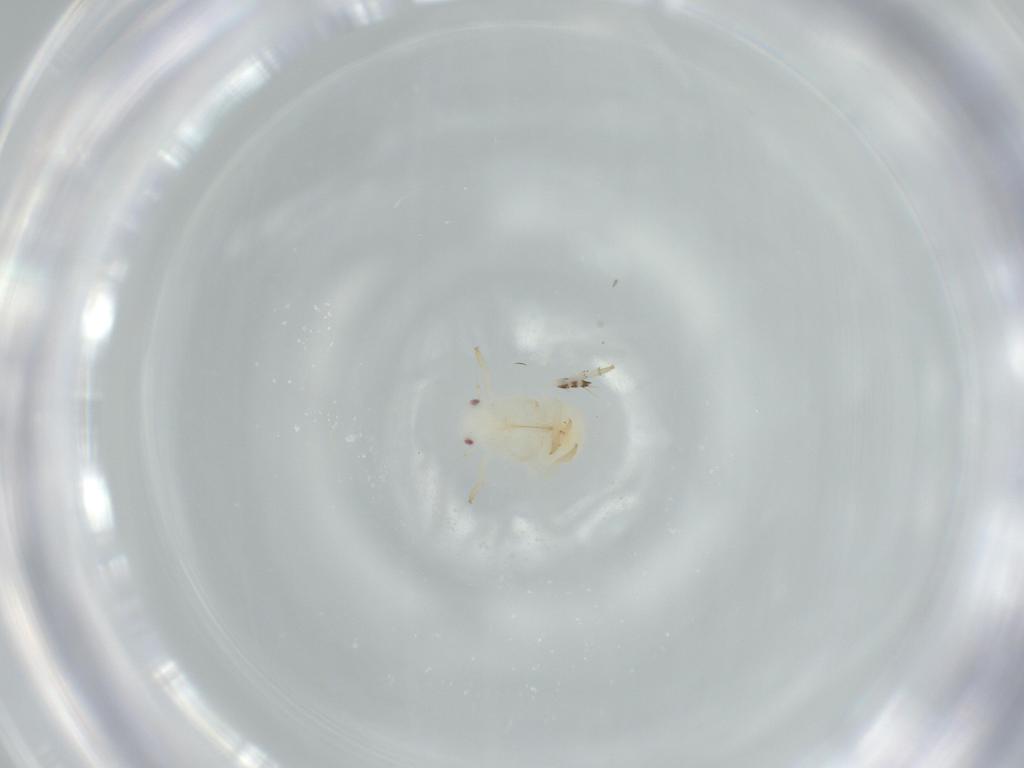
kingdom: Animalia
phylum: Arthropoda
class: Insecta
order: Hemiptera
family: Flatidae
